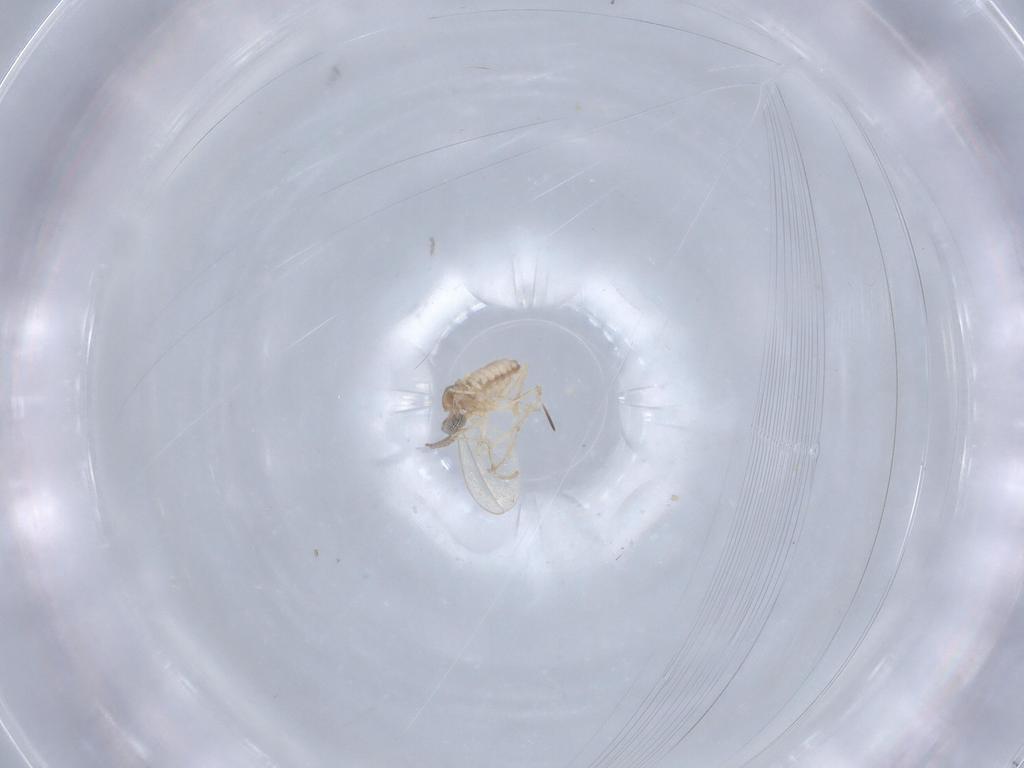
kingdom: Animalia
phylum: Arthropoda
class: Insecta
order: Diptera
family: Cecidomyiidae
